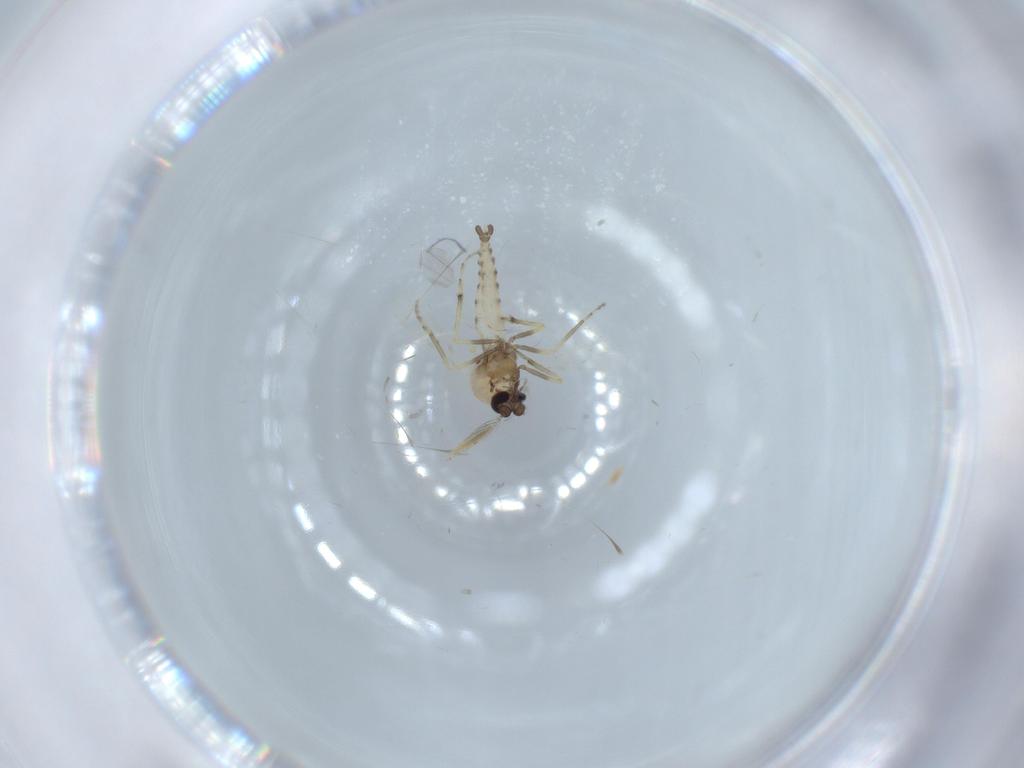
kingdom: Animalia
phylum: Arthropoda
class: Insecta
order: Diptera
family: Ceratopogonidae
